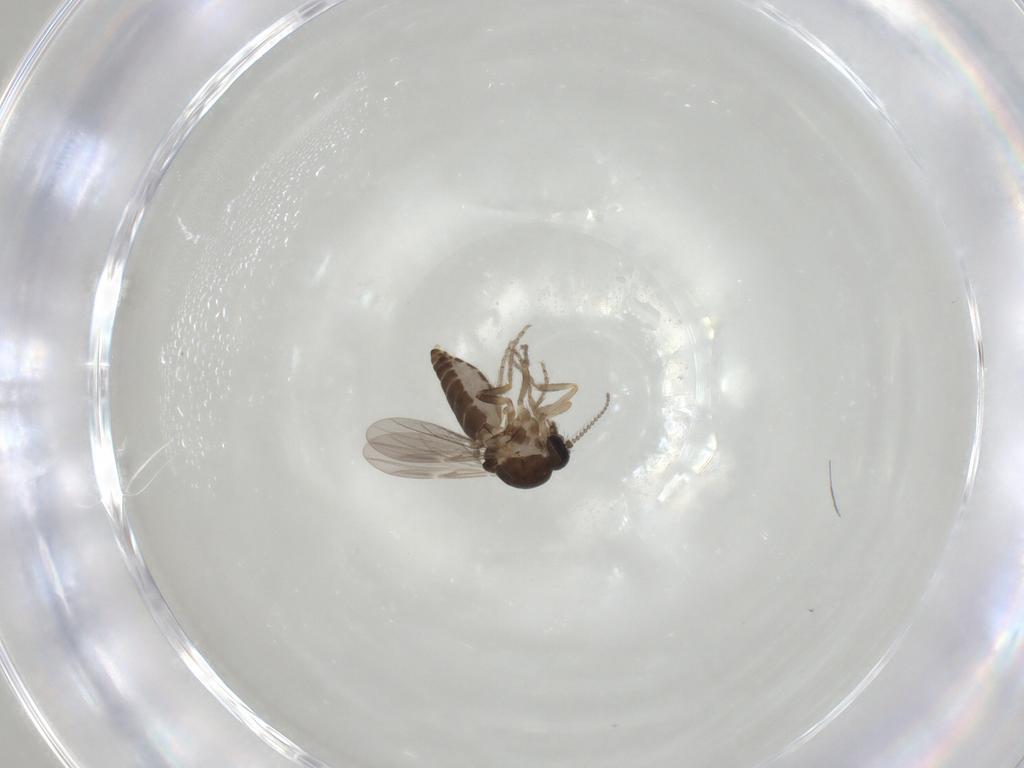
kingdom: Animalia
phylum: Arthropoda
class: Insecta
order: Diptera
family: Ceratopogonidae
